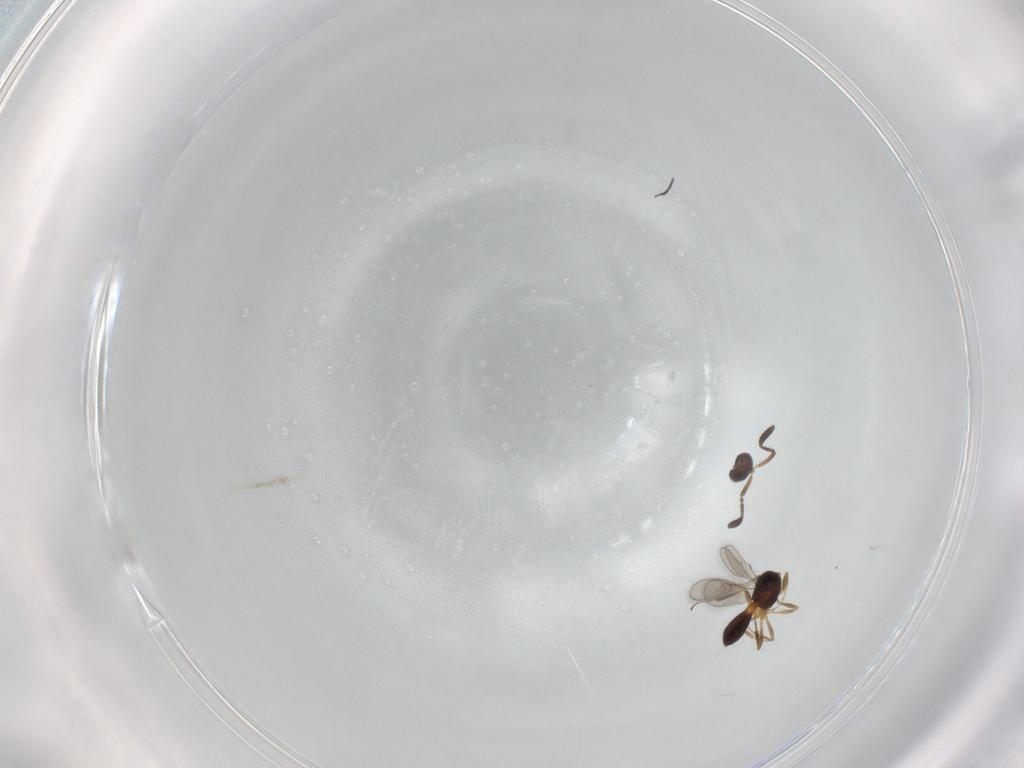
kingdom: Animalia
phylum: Arthropoda
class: Insecta
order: Hymenoptera
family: Scelionidae
